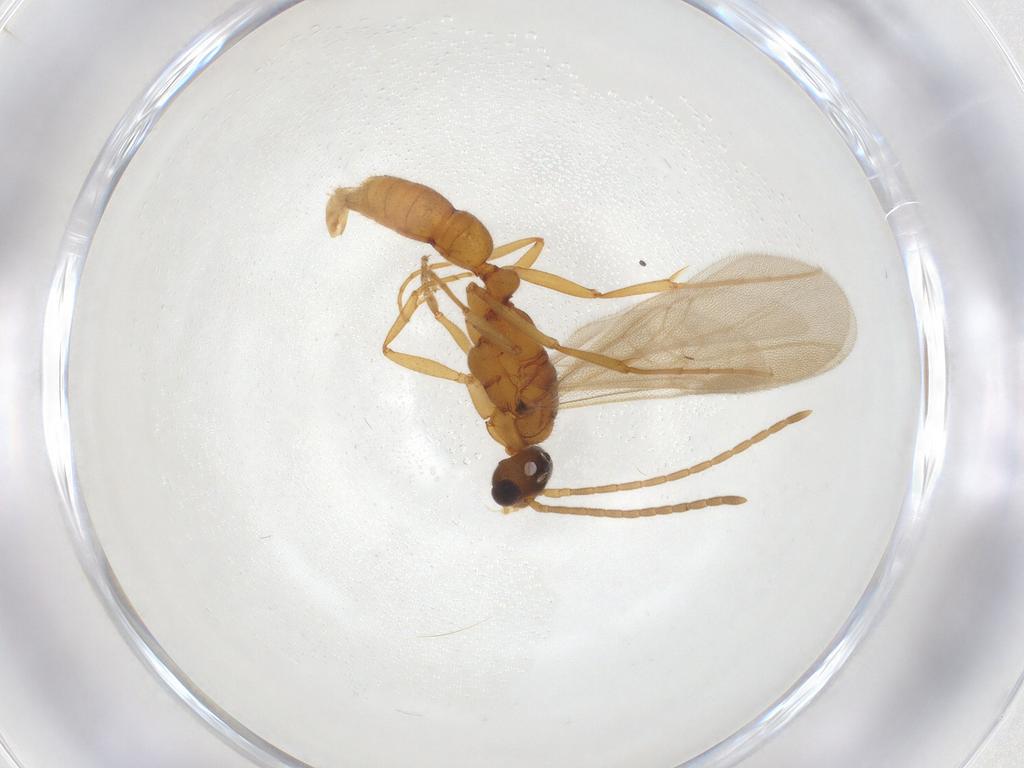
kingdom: Animalia
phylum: Arthropoda
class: Insecta
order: Hymenoptera
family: Formicidae
